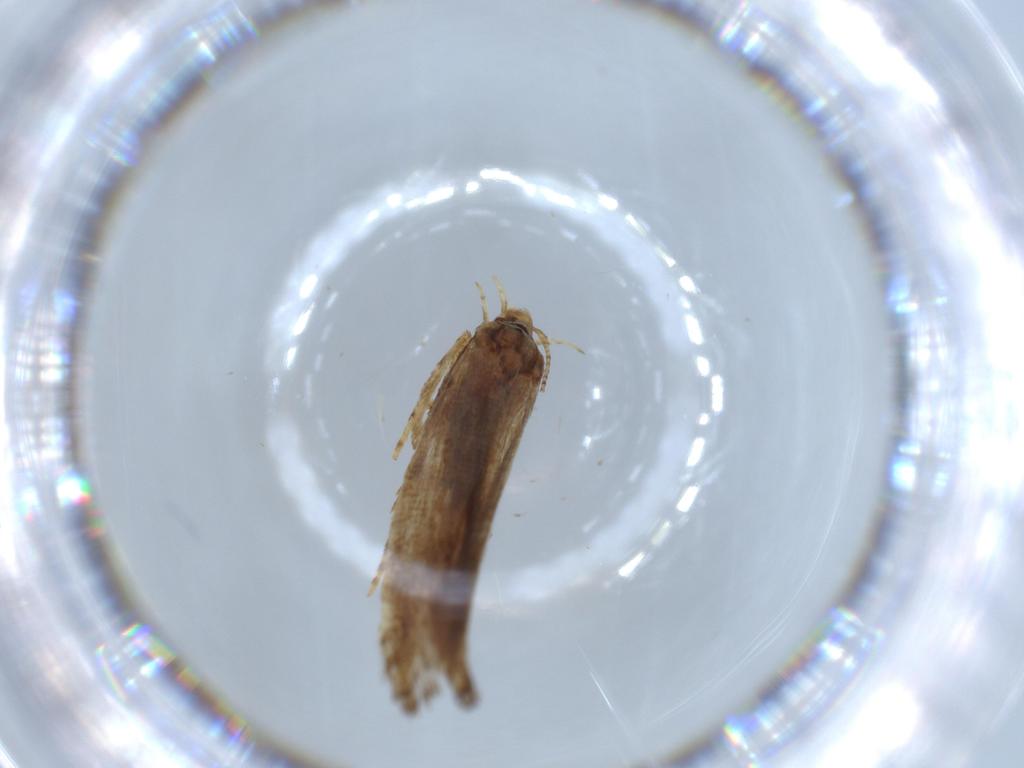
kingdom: Animalia
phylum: Arthropoda
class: Insecta
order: Lepidoptera
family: Cosmopterigidae
